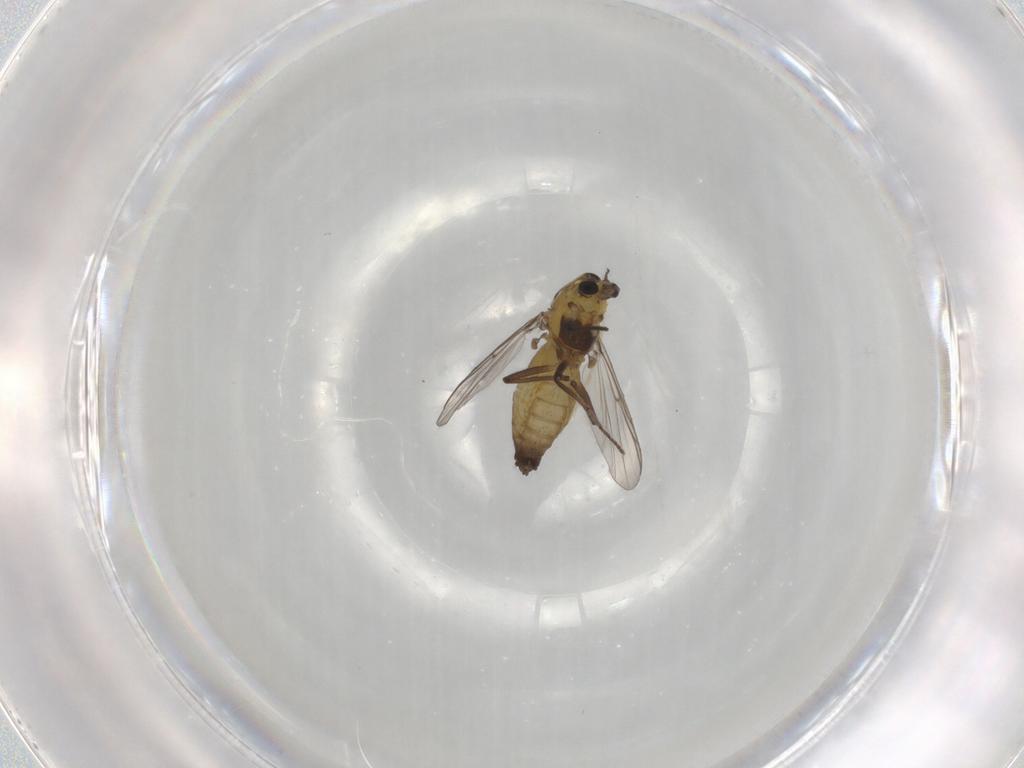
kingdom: Animalia
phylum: Arthropoda
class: Insecta
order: Diptera
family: Chironomidae
